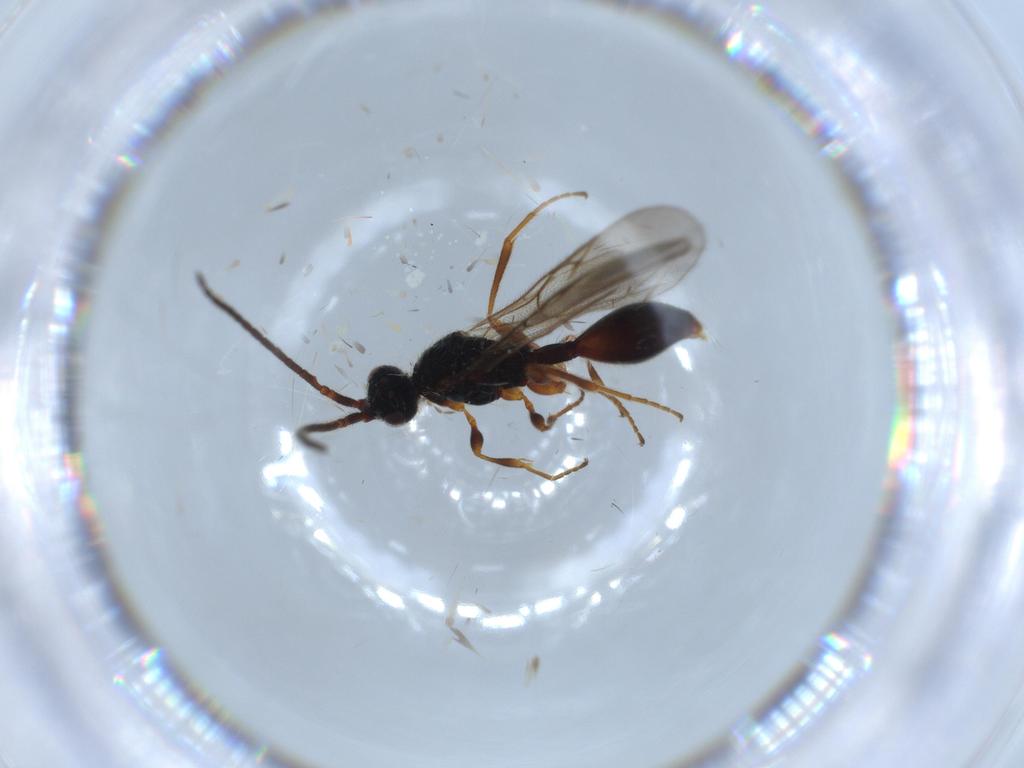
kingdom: Animalia
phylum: Arthropoda
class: Insecta
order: Hymenoptera
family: Diapriidae
